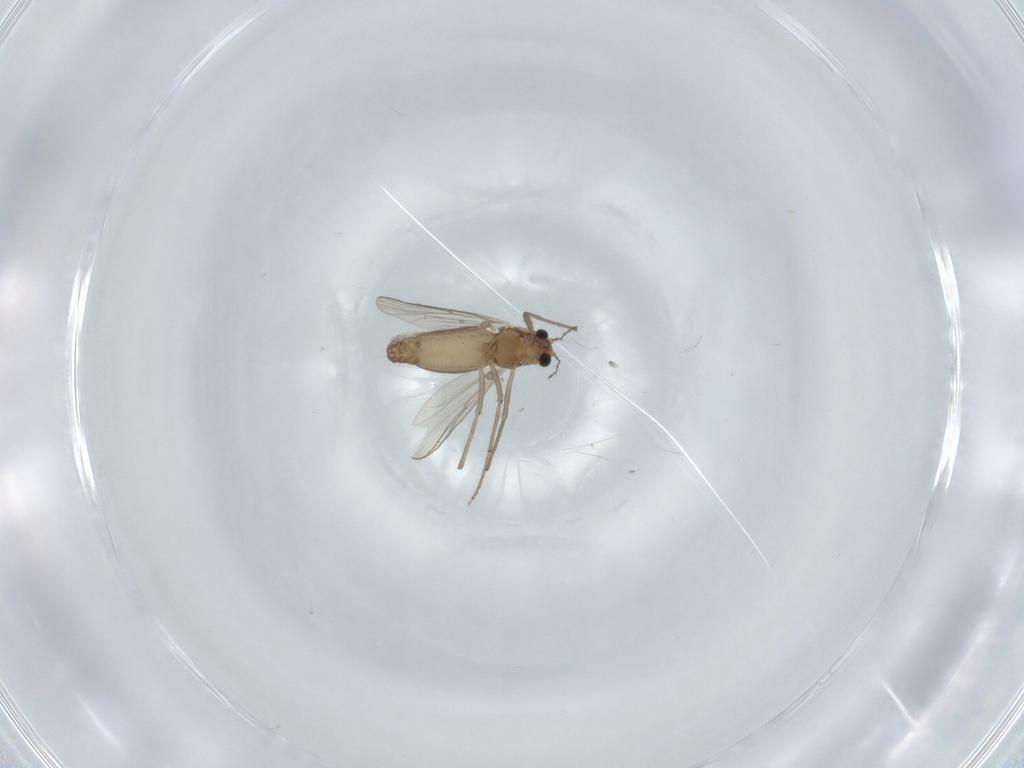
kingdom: Animalia
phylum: Arthropoda
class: Insecta
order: Diptera
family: Chironomidae
